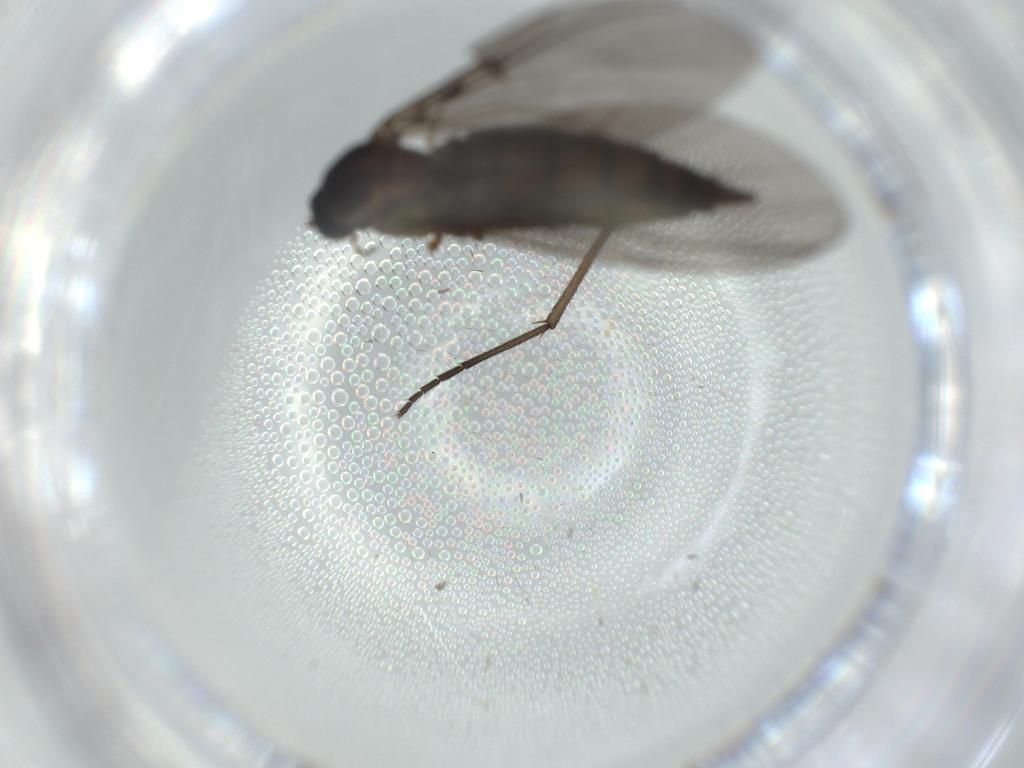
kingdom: Animalia
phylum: Arthropoda
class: Insecta
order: Diptera
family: Sciaridae
